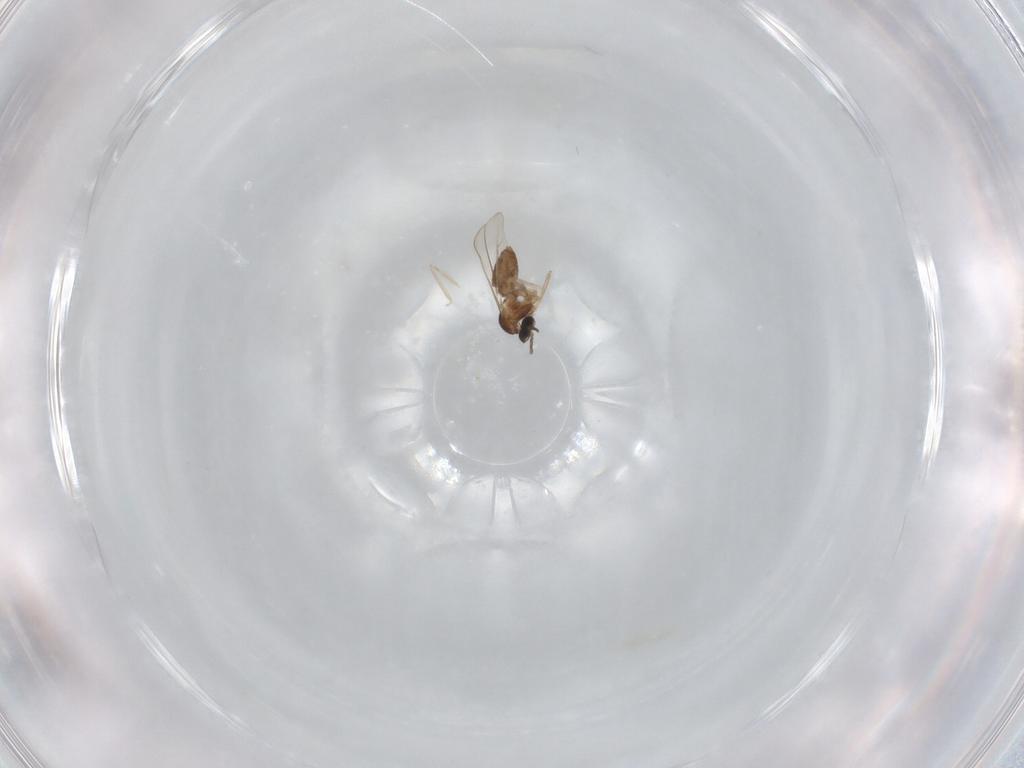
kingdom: Animalia
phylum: Arthropoda
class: Insecta
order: Diptera
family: Cecidomyiidae
